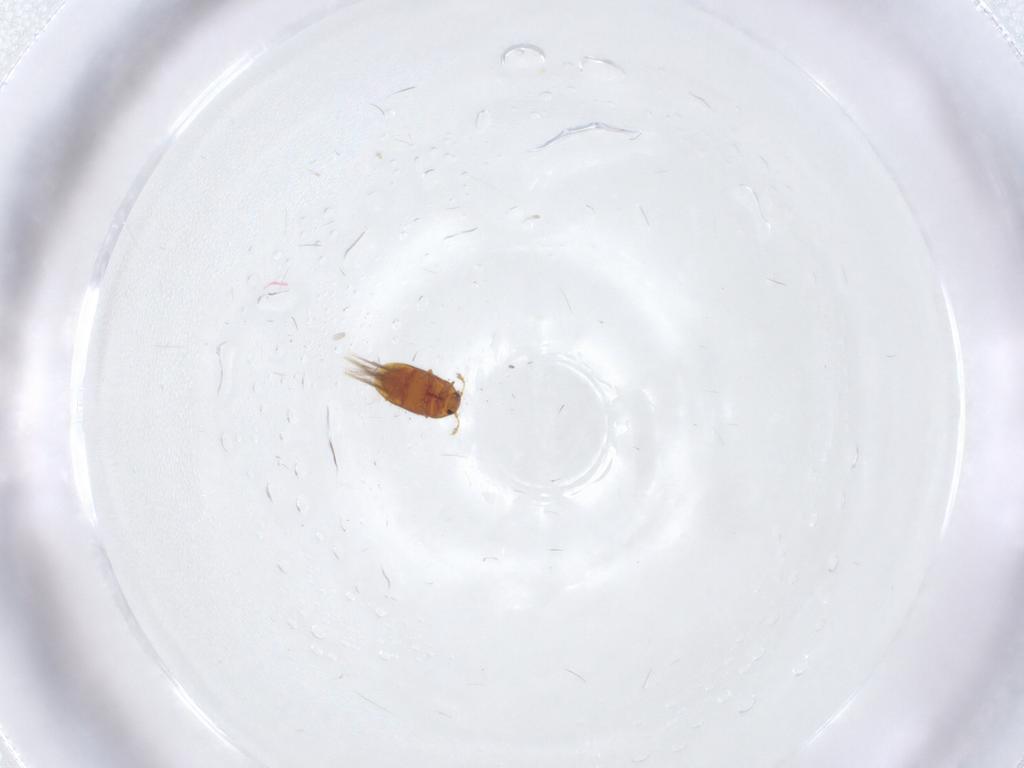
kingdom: Animalia
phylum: Arthropoda
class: Insecta
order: Coleoptera
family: Ptiliidae
